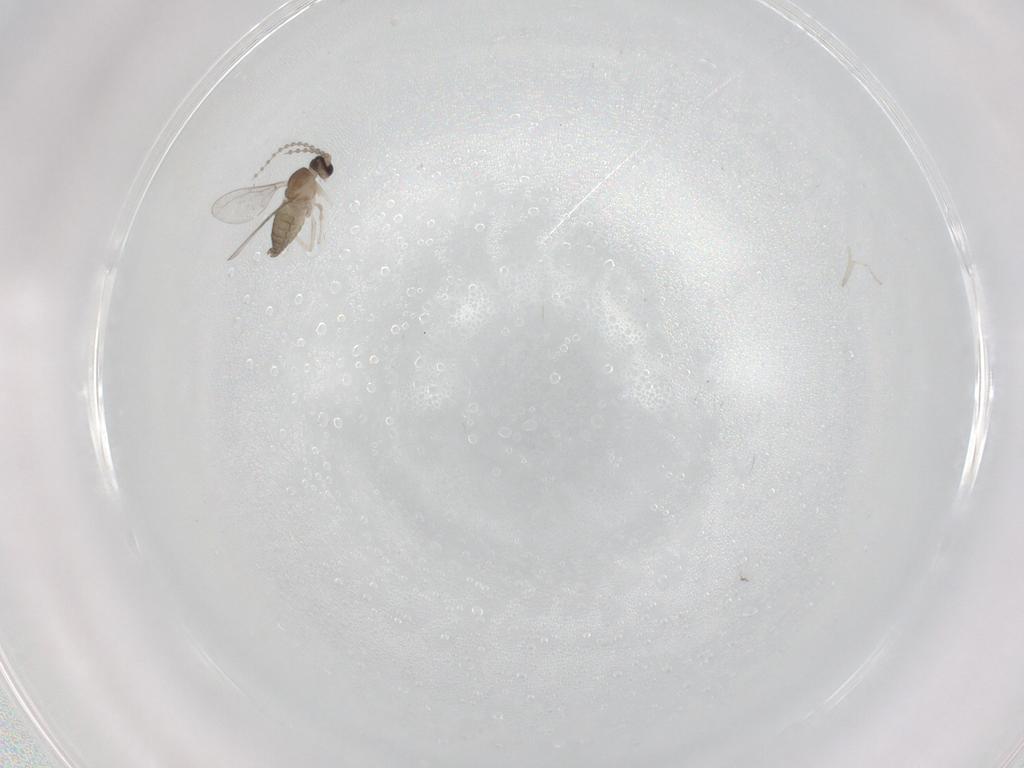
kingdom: Animalia
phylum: Arthropoda
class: Insecta
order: Diptera
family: Cecidomyiidae
